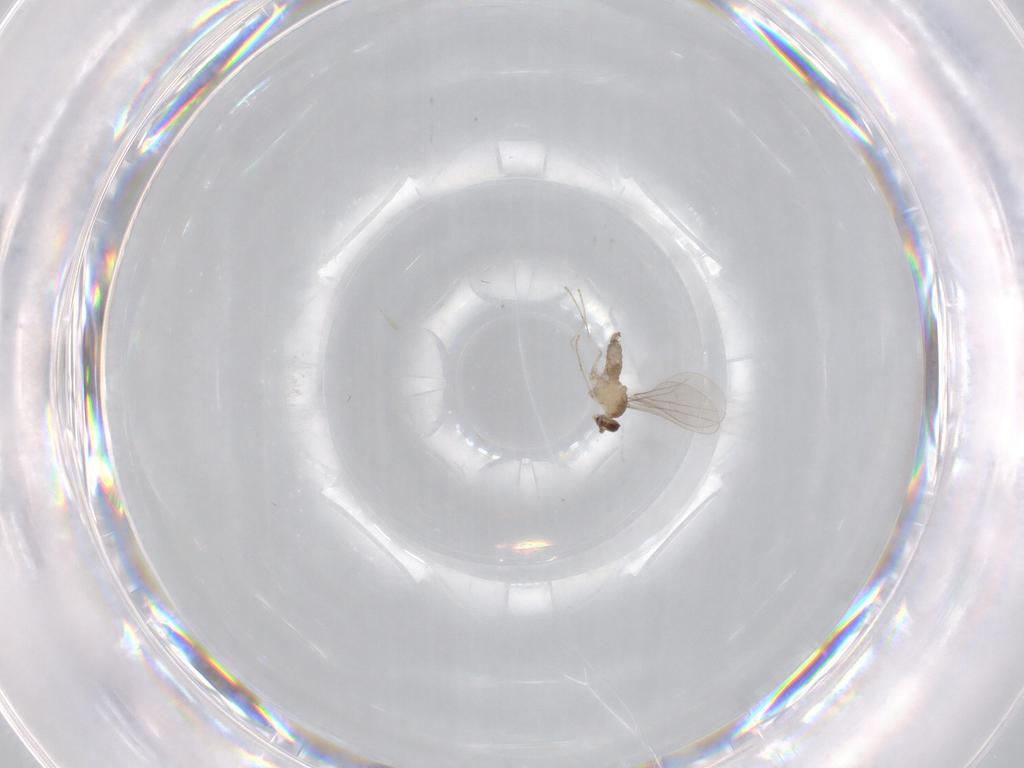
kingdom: Animalia
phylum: Arthropoda
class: Insecta
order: Diptera
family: Cecidomyiidae
